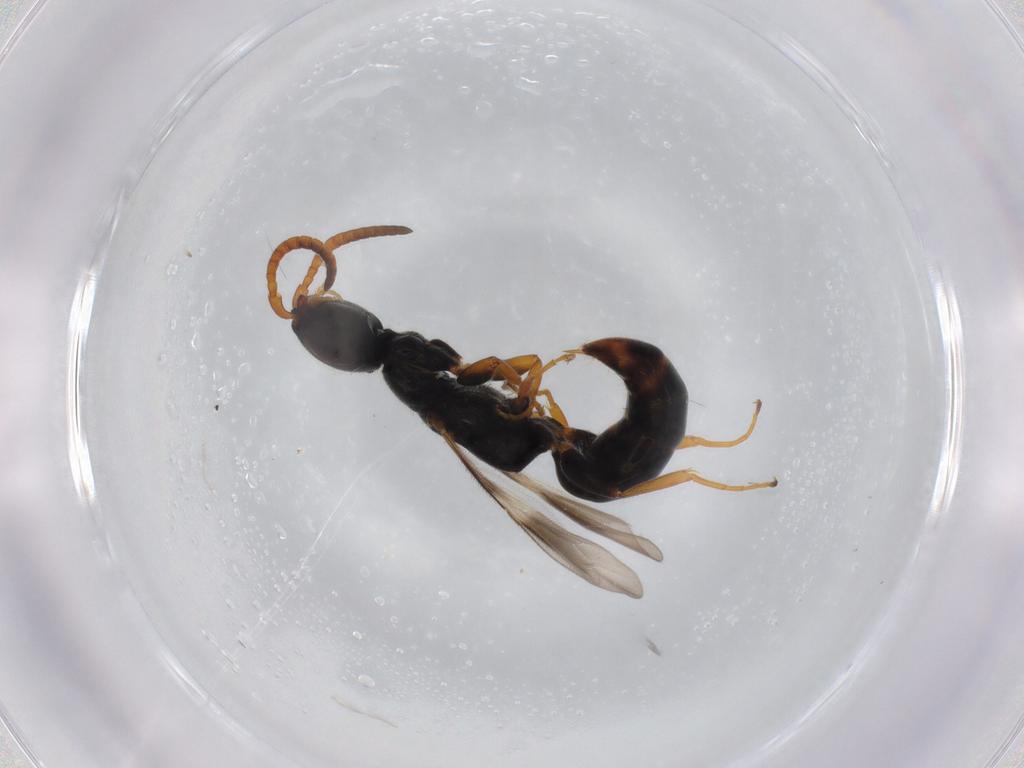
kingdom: Animalia
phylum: Arthropoda
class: Insecta
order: Hymenoptera
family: Bethylidae
